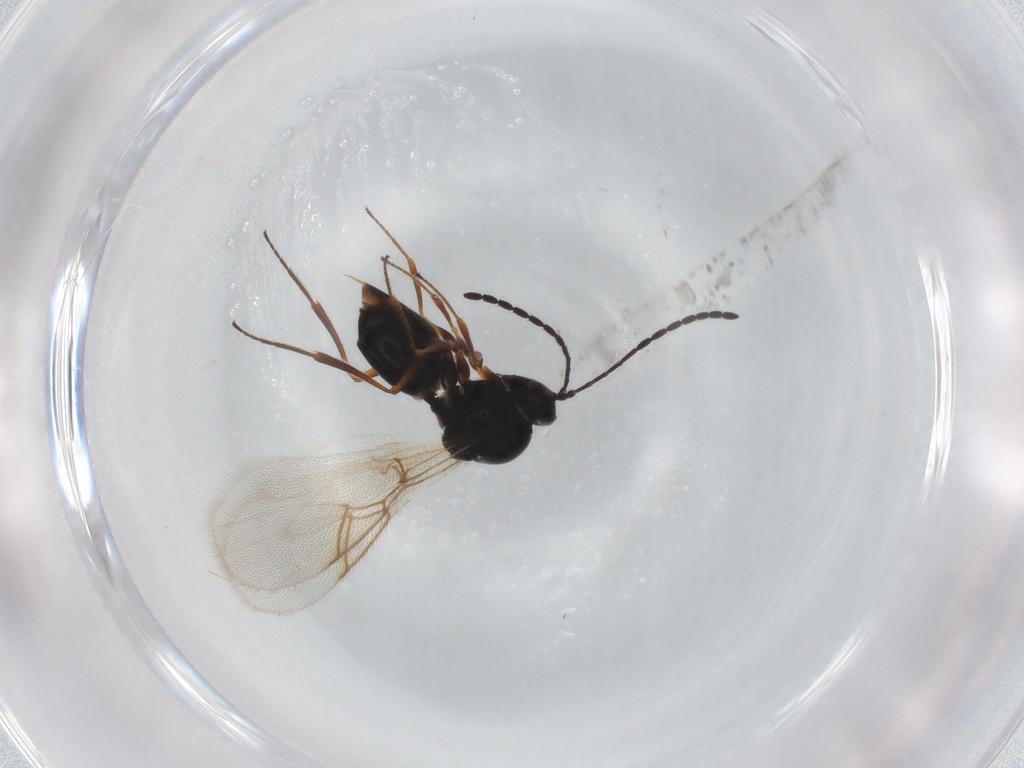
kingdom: Animalia
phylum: Arthropoda
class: Insecta
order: Hymenoptera
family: Figitidae
